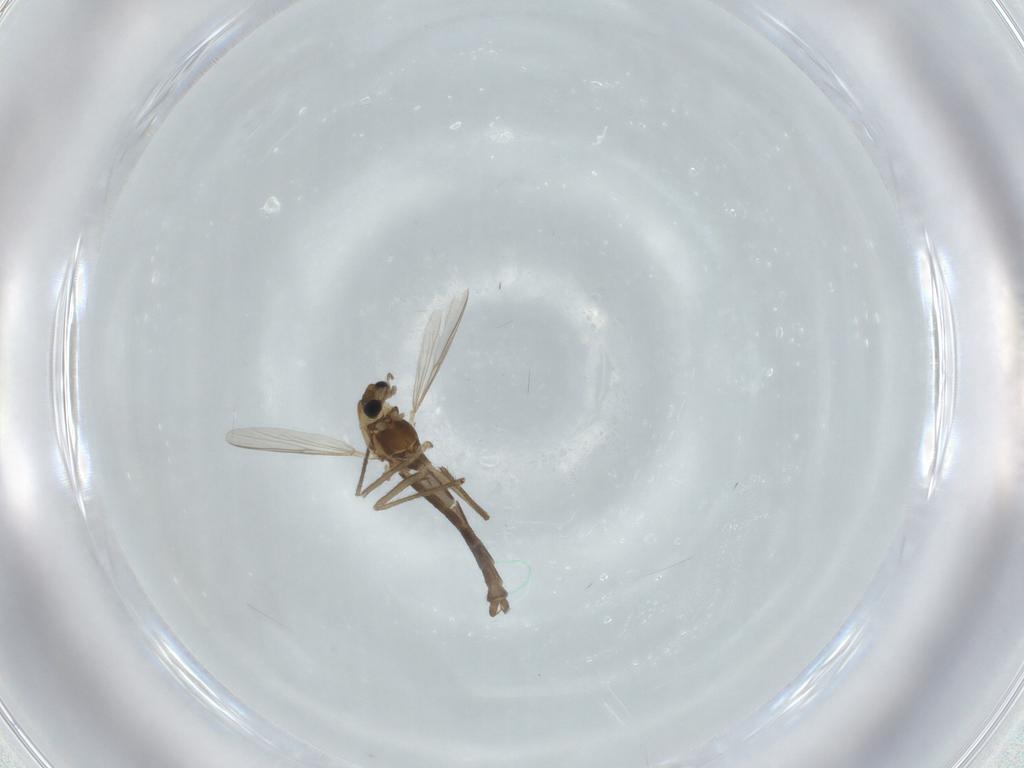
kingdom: Animalia
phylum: Arthropoda
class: Insecta
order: Diptera
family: Chironomidae
